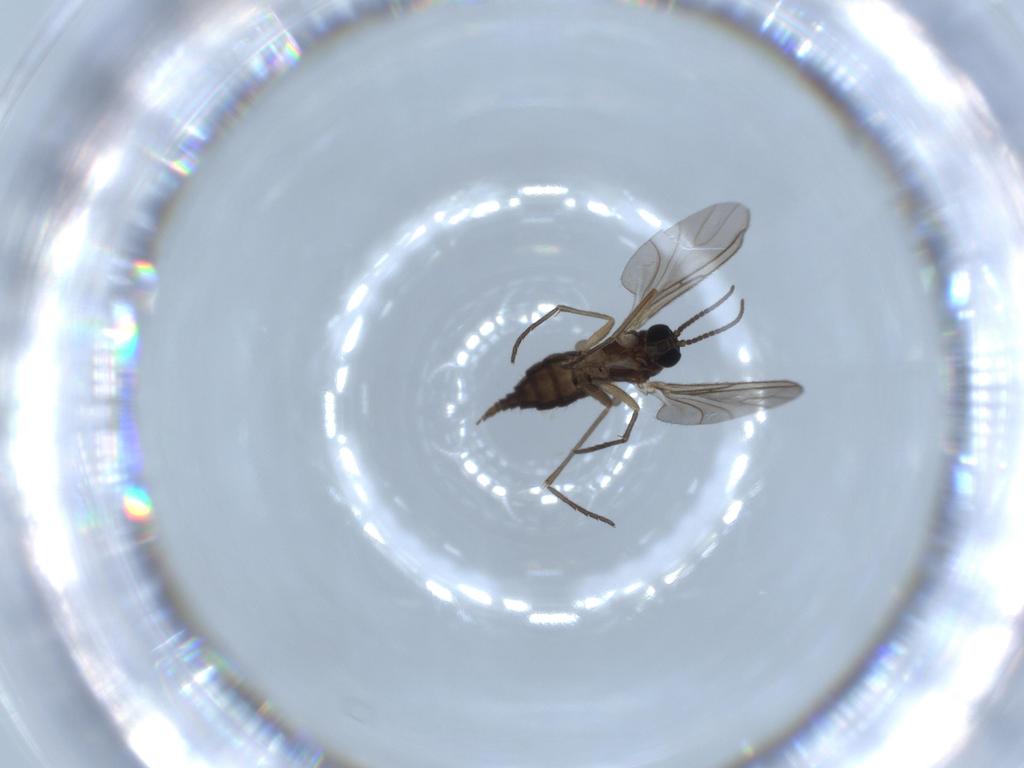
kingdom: Animalia
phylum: Arthropoda
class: Insecta
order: Diptera
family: Sciaridae
